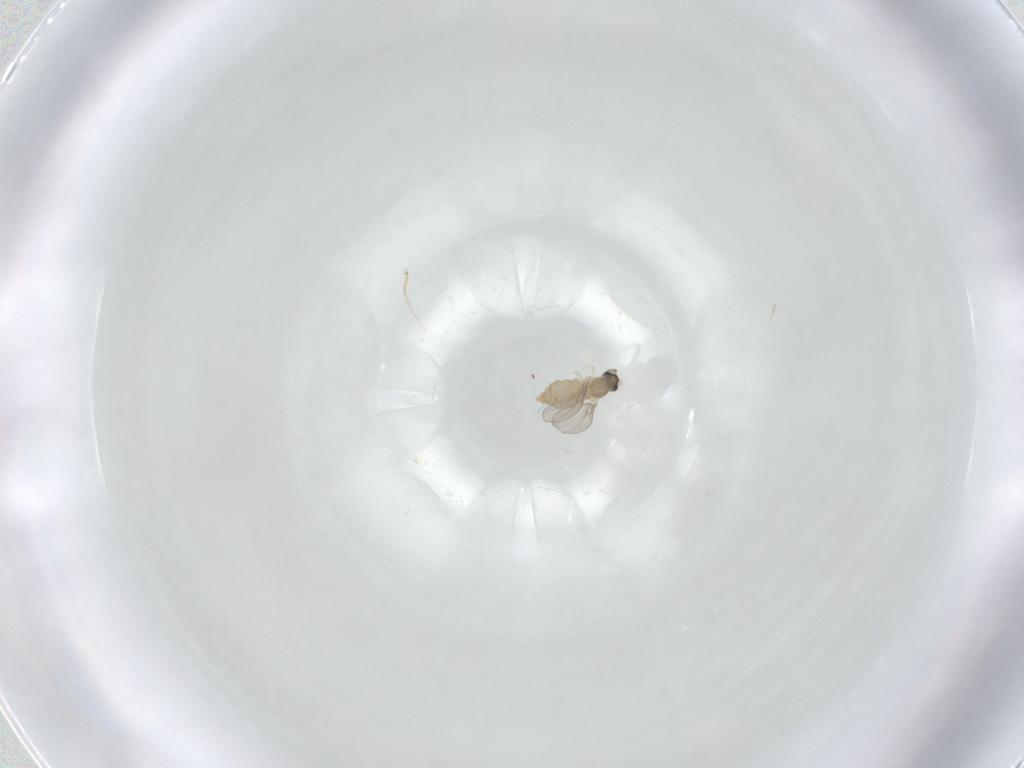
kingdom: Animalia
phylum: Arthropoda
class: Insecta
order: Diptera
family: Cecidomyiidae
